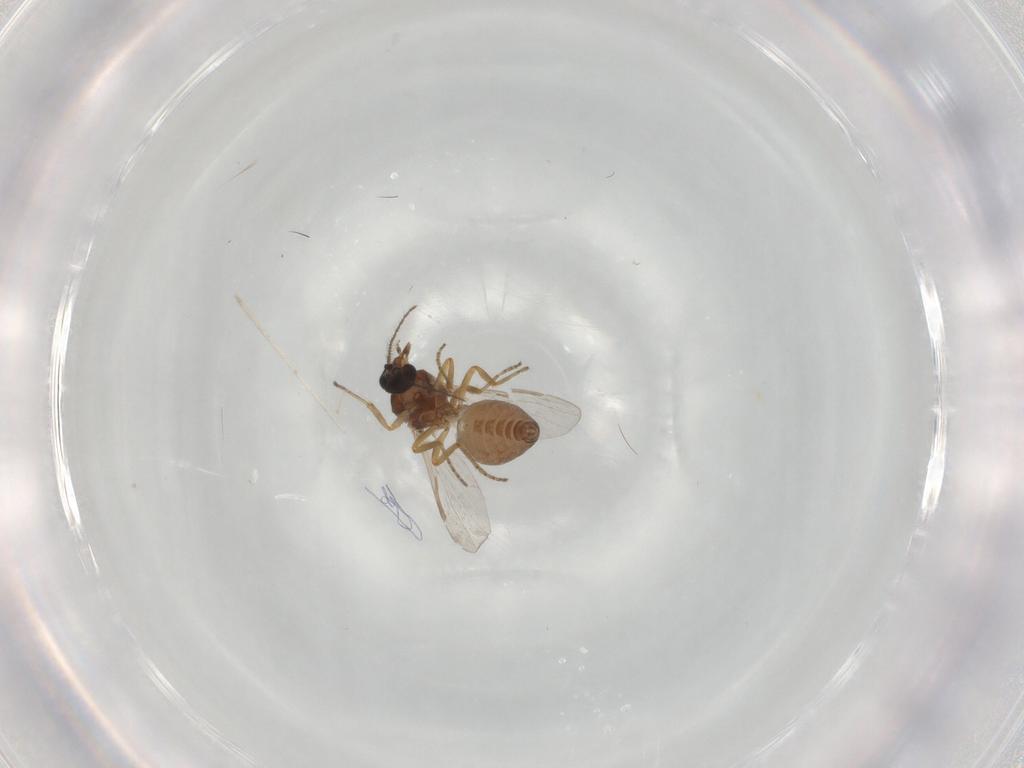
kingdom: Animalia
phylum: Arthropoda
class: Insecta
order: Diptera
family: Ceratopogonidae
